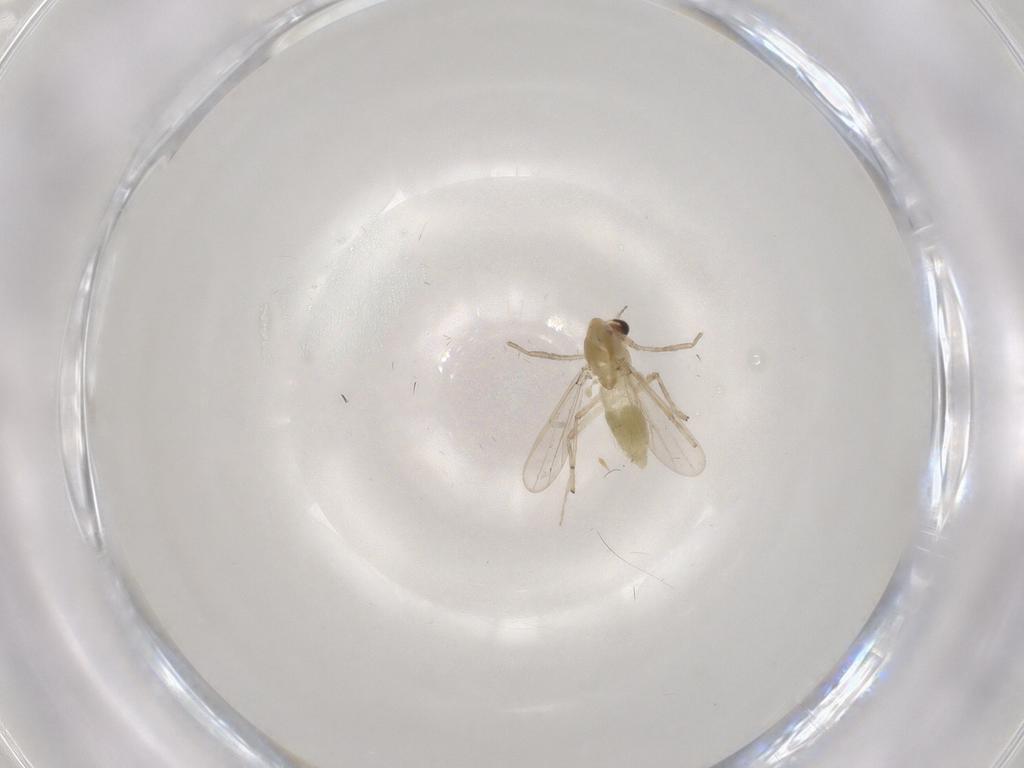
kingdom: Animalia
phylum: Arthropoda
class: Insecta
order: Diptera
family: Chironomidae
